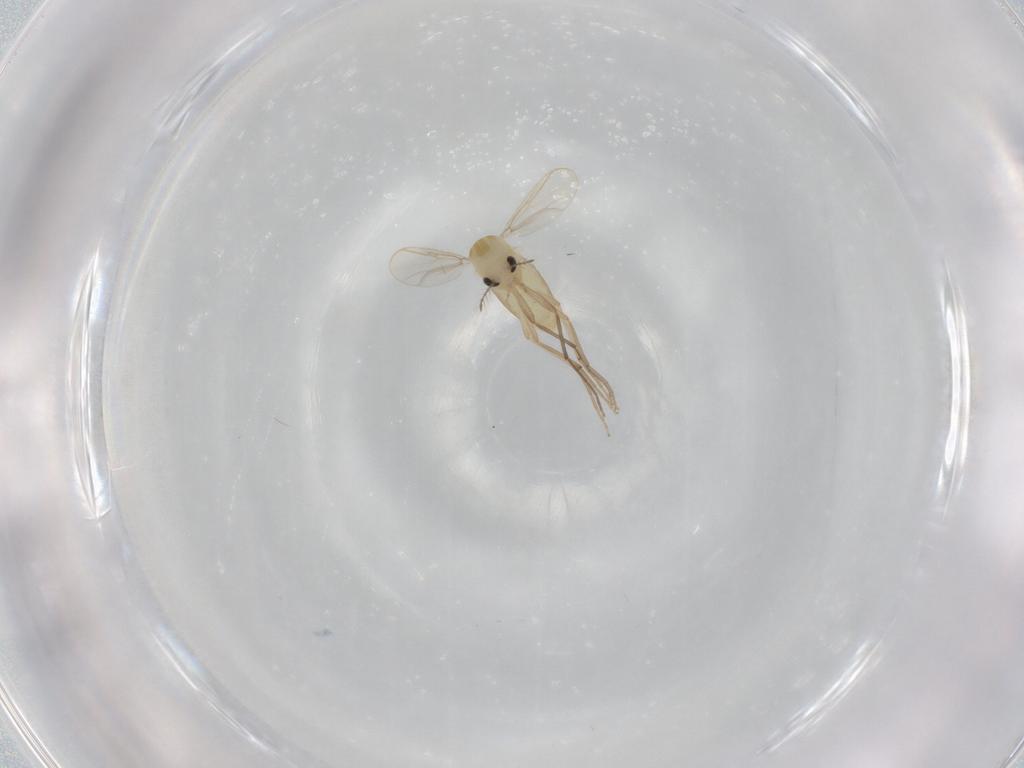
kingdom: Animalia
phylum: Arthropoda
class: Insecta
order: Diptera
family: Chironomidae
